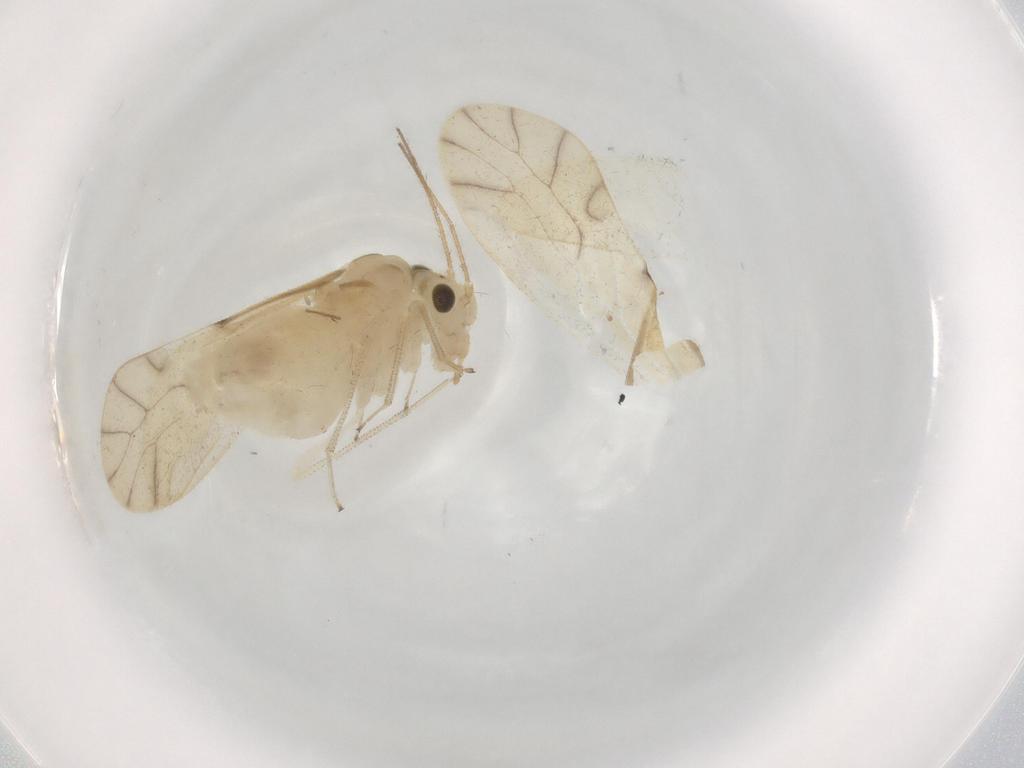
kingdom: Animalia
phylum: Arthropoda
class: Insecta
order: Psocodea
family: Caeciliusidae
